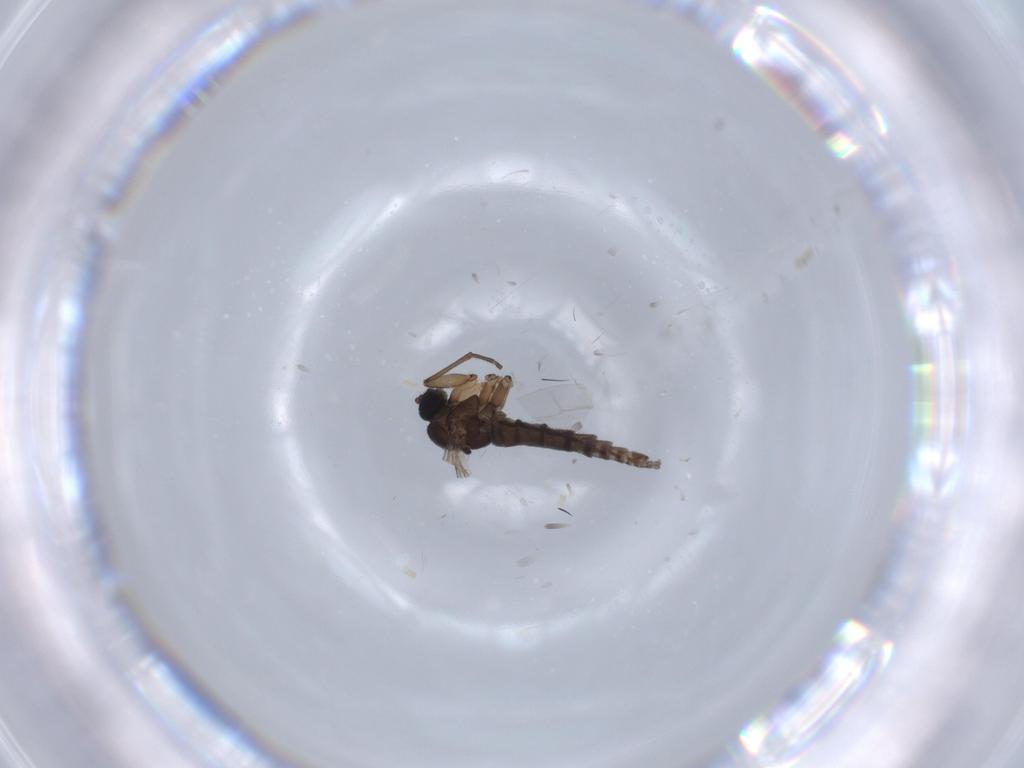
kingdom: Animalia
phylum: Arthropoda
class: Insecta
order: Diptera
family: Sciaridae
